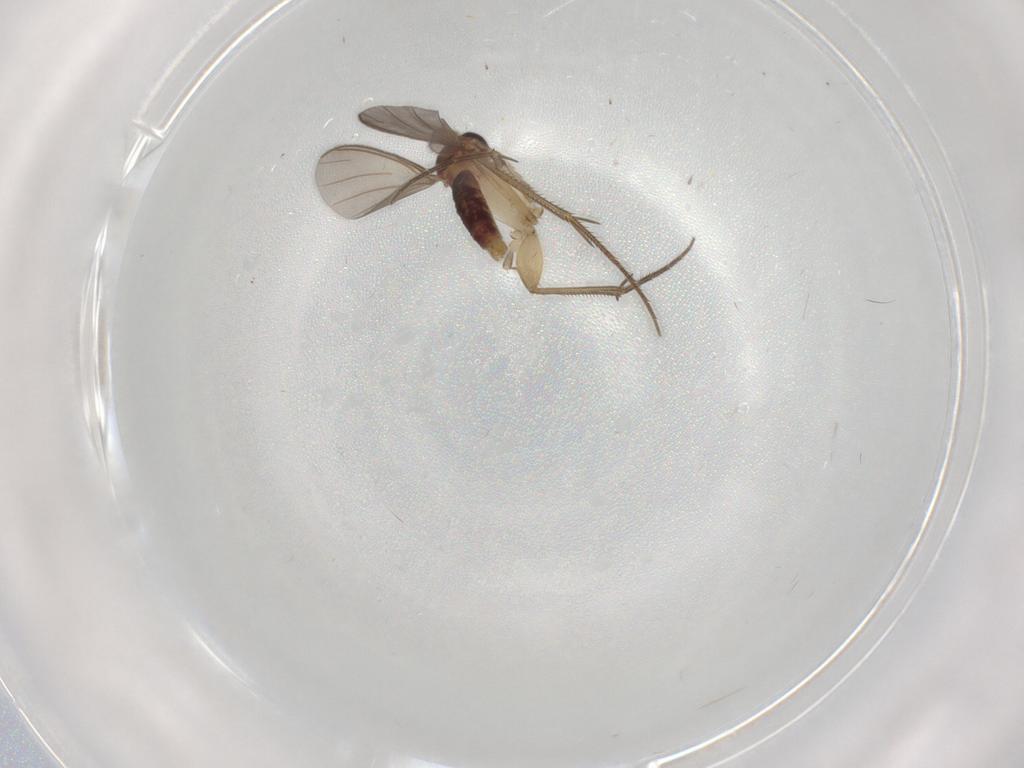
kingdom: Animalia
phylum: Arthropoda
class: Insecta
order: Diptera
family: Mycetophilidae
